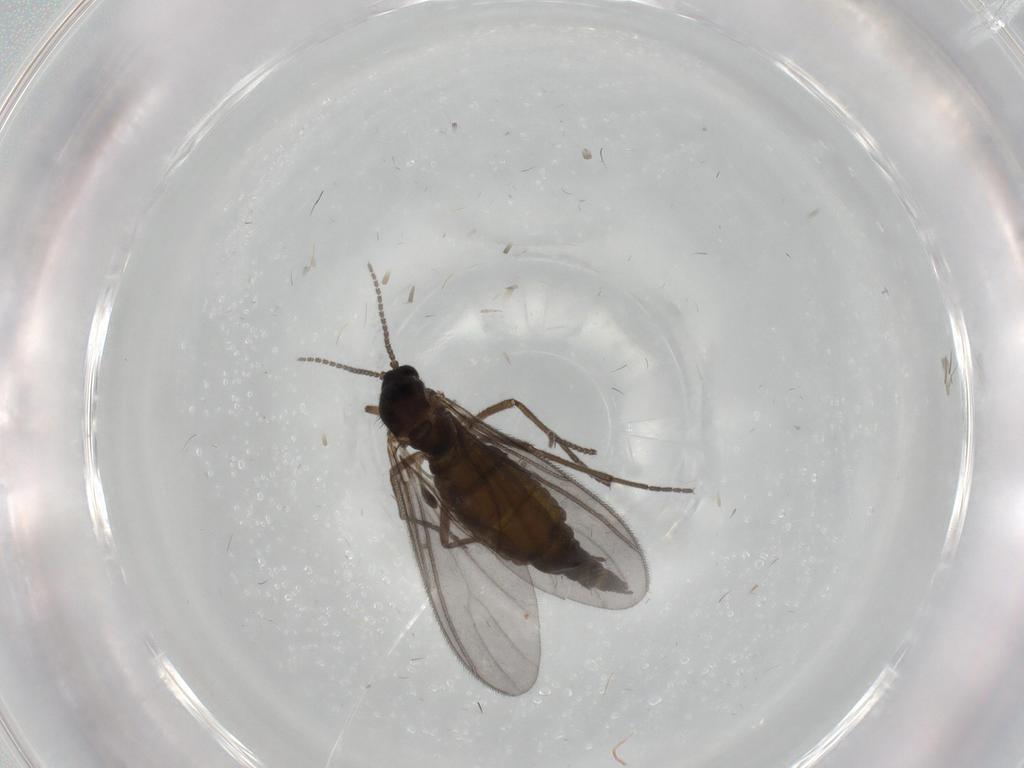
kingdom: Animalia
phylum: Arthropoda
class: Insecta
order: Diptera
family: Sciaridae
